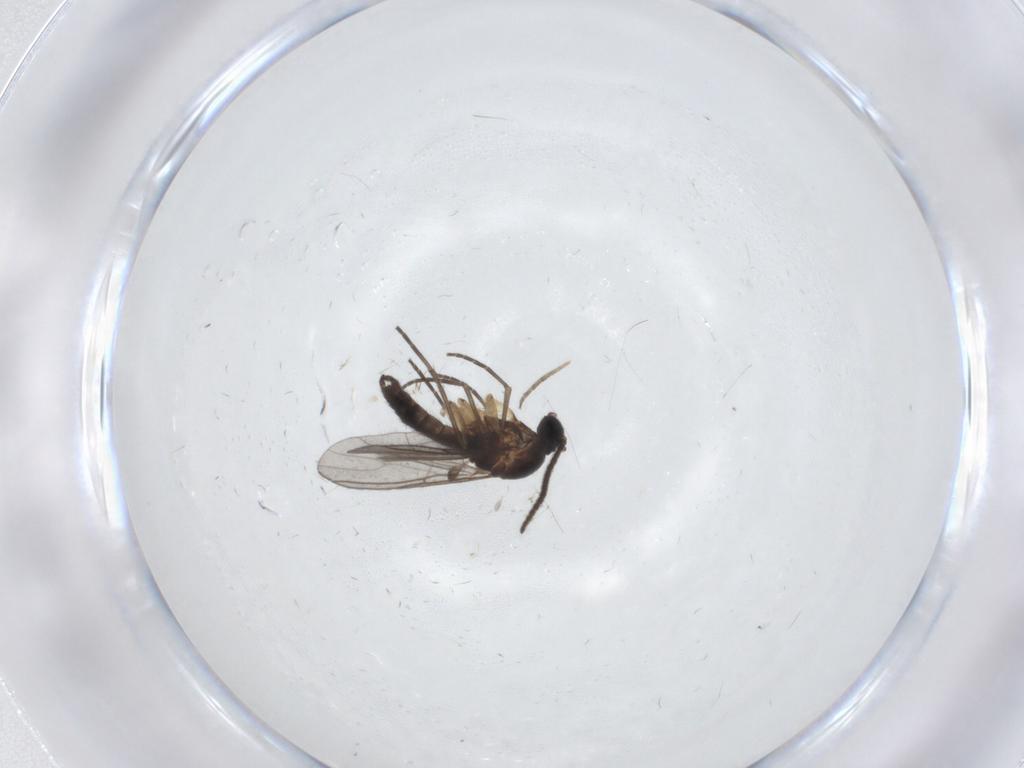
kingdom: Animalia
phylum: Arthropoda
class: Insecta
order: Diptera
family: Sciaridae
